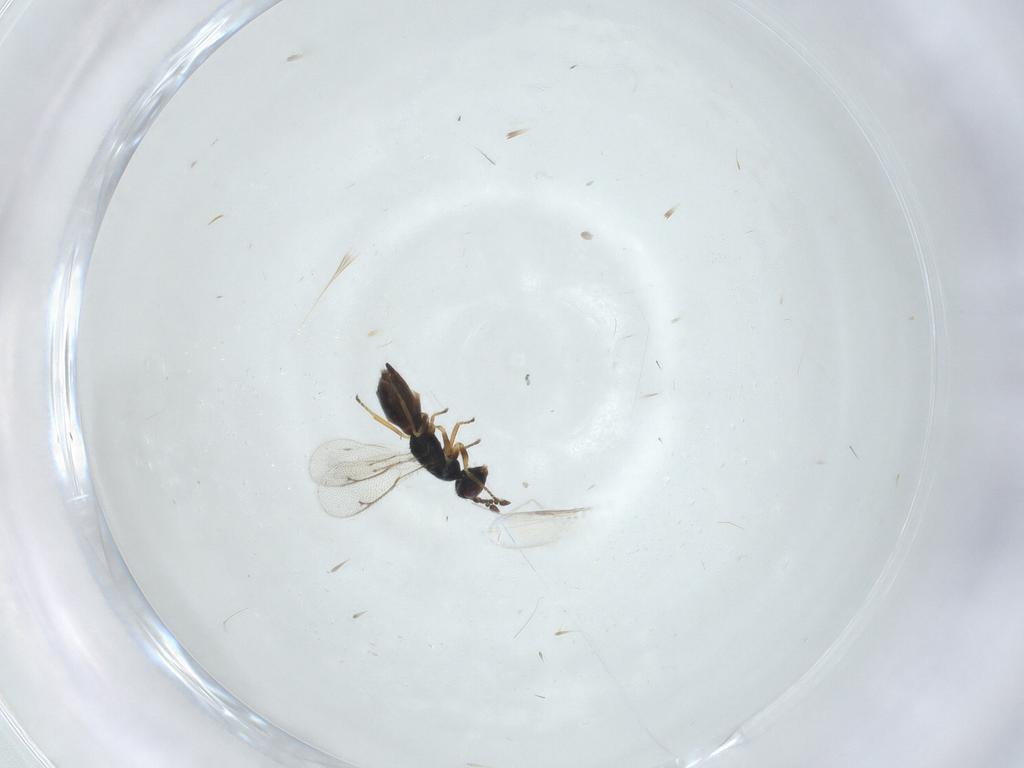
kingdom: Animalia
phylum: Arthropoda
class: Insecta
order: Hymenoptera
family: Eulophidae
